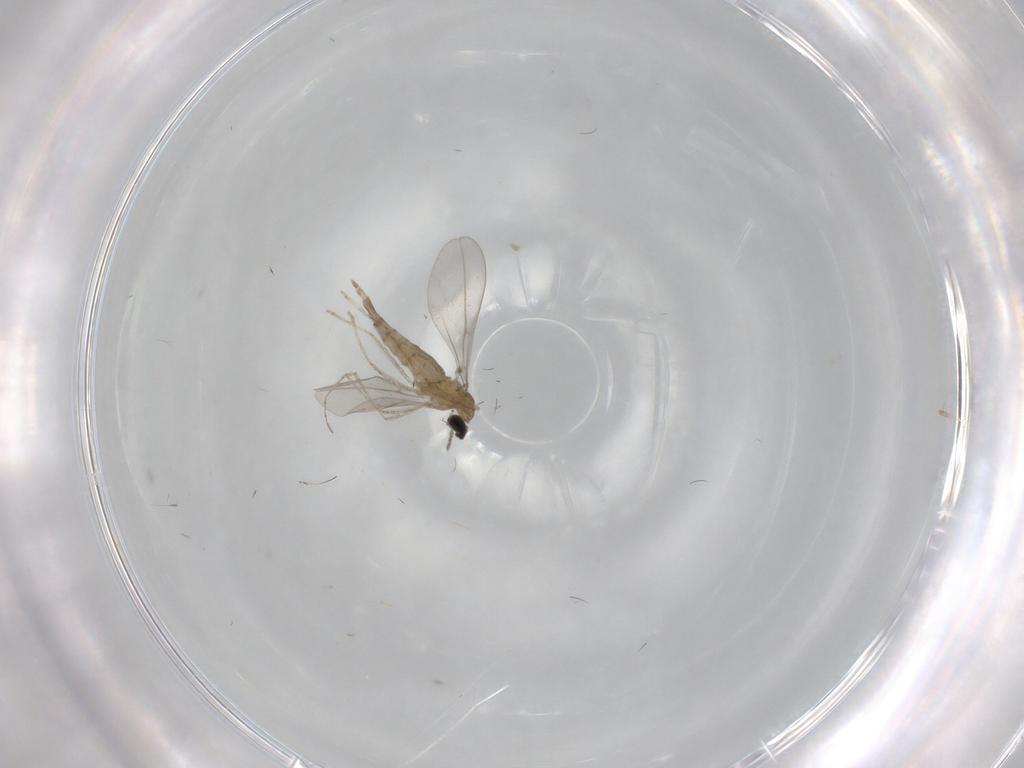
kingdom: Animalia
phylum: Arthropoda
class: Insecta
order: Diptera
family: Cecidomyiidae
